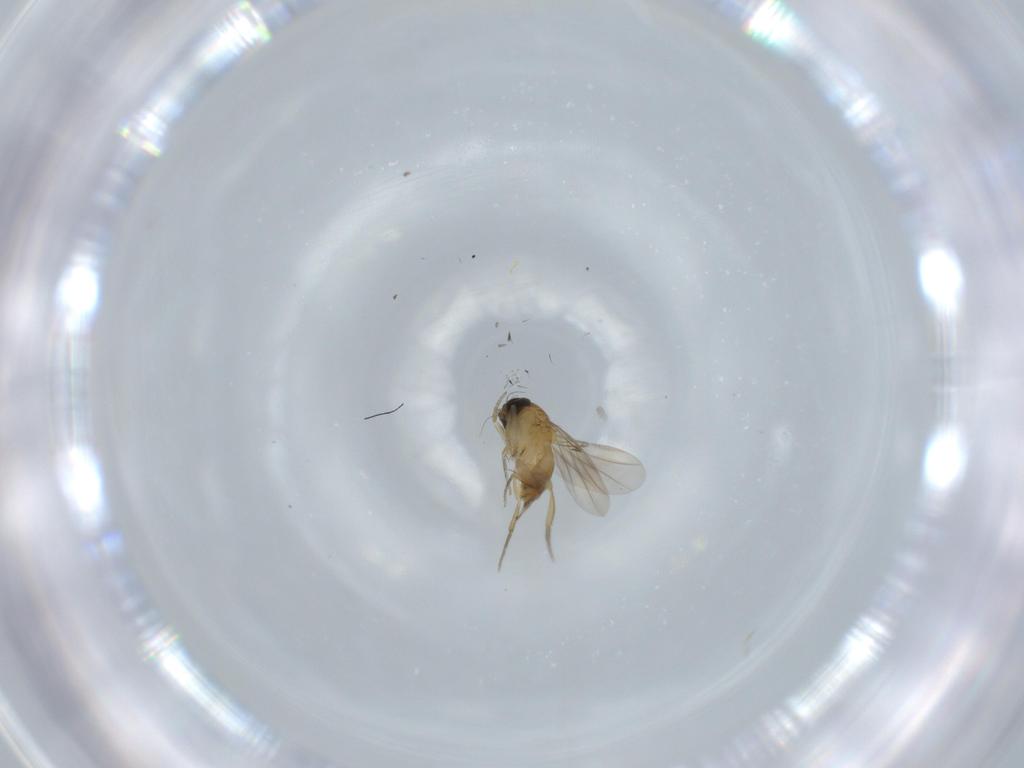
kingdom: Animalia
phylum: Arthropoda
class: Insecta
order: Diptera
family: Phoridae
